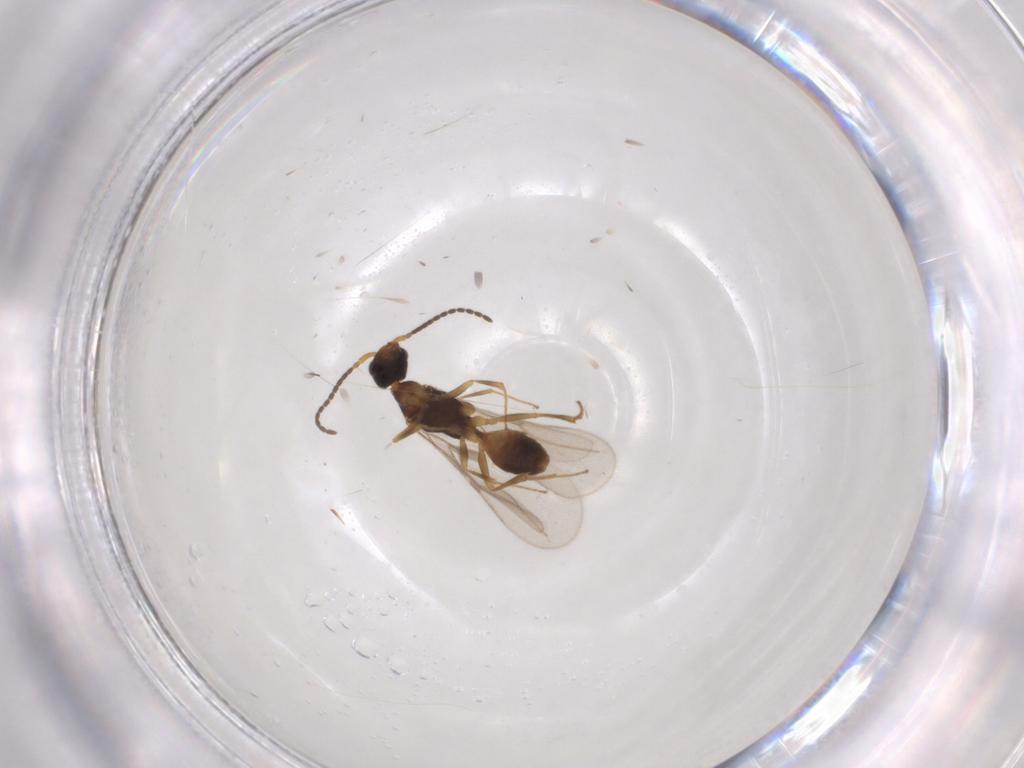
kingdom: Animalia
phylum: Arthropoda
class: Insecta
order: Hymenoptera
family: Bethylidae
